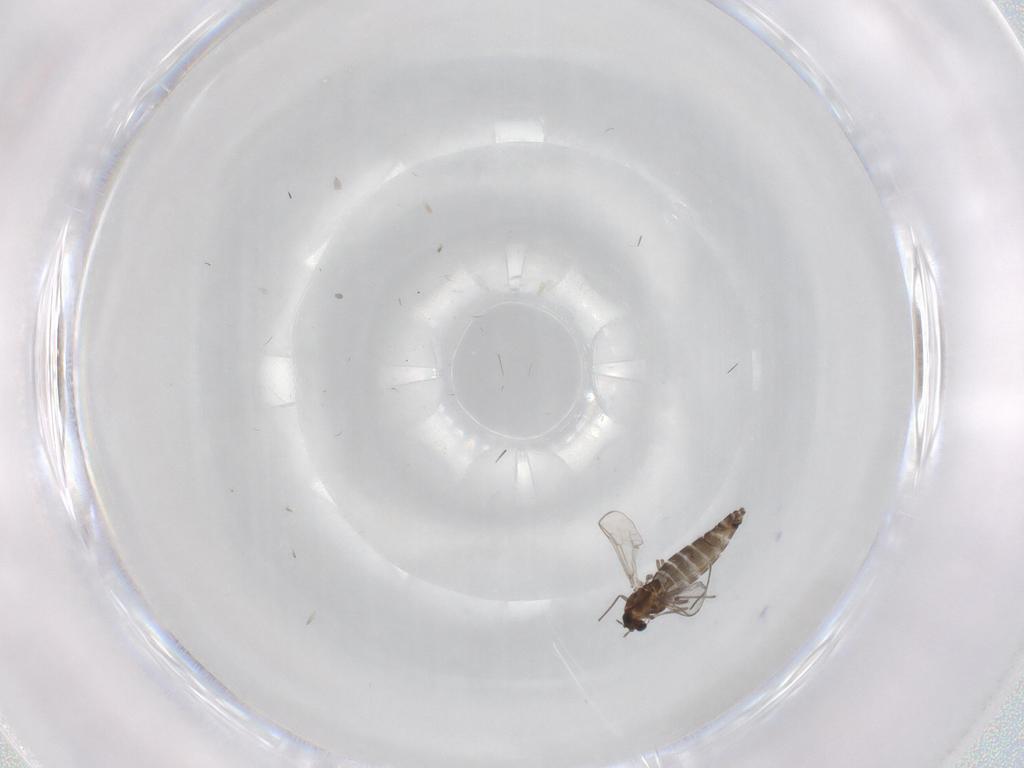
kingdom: Animalia
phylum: Arthropoda
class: Insecta
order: Diptera
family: Chironomidae
